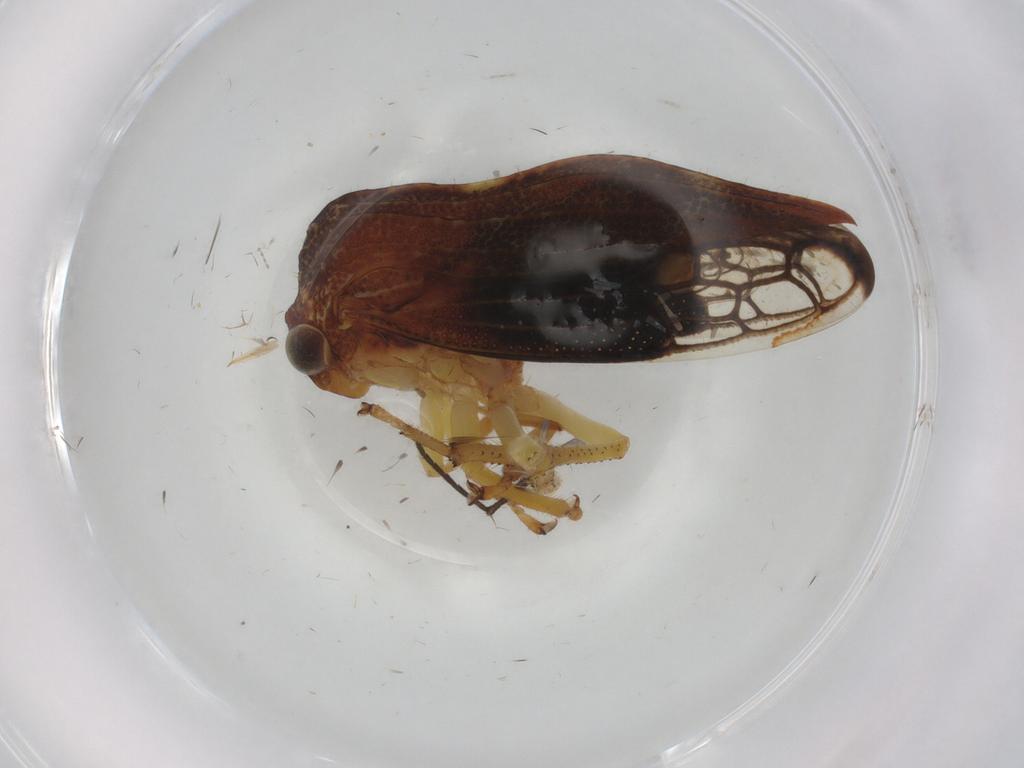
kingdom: Animalia
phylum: Arthropoda
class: Insecta
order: Hemiptera
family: Membracidae
